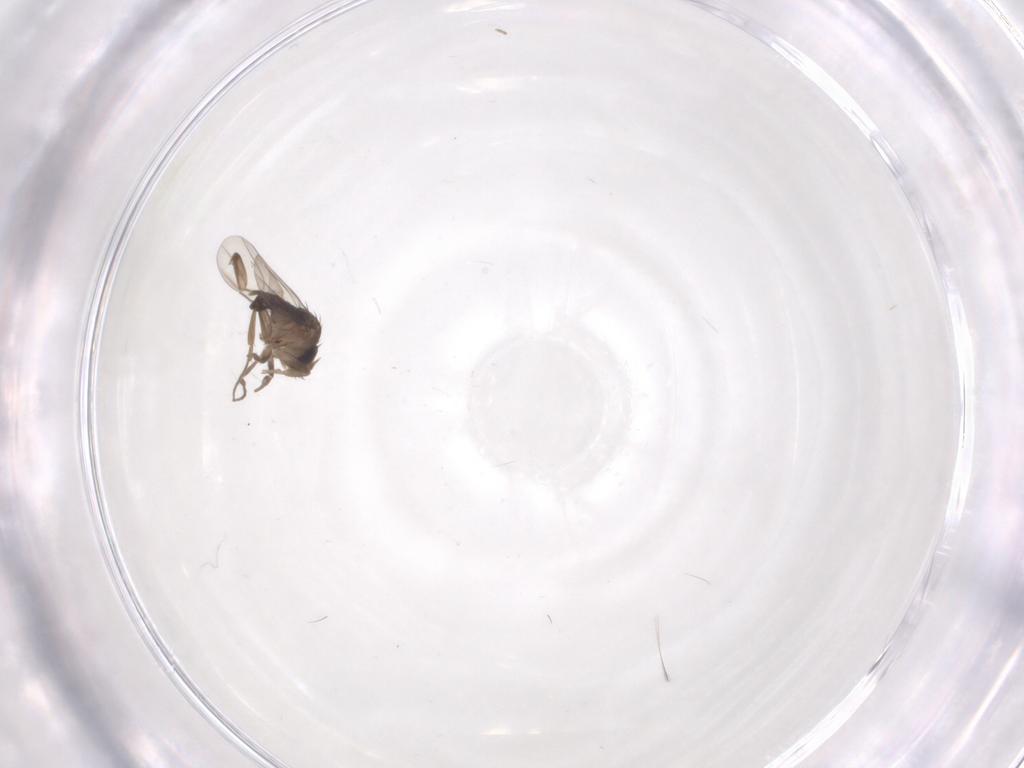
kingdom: Animalia
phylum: Arthropoda
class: Insecta
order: Diptera
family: Phoridae
